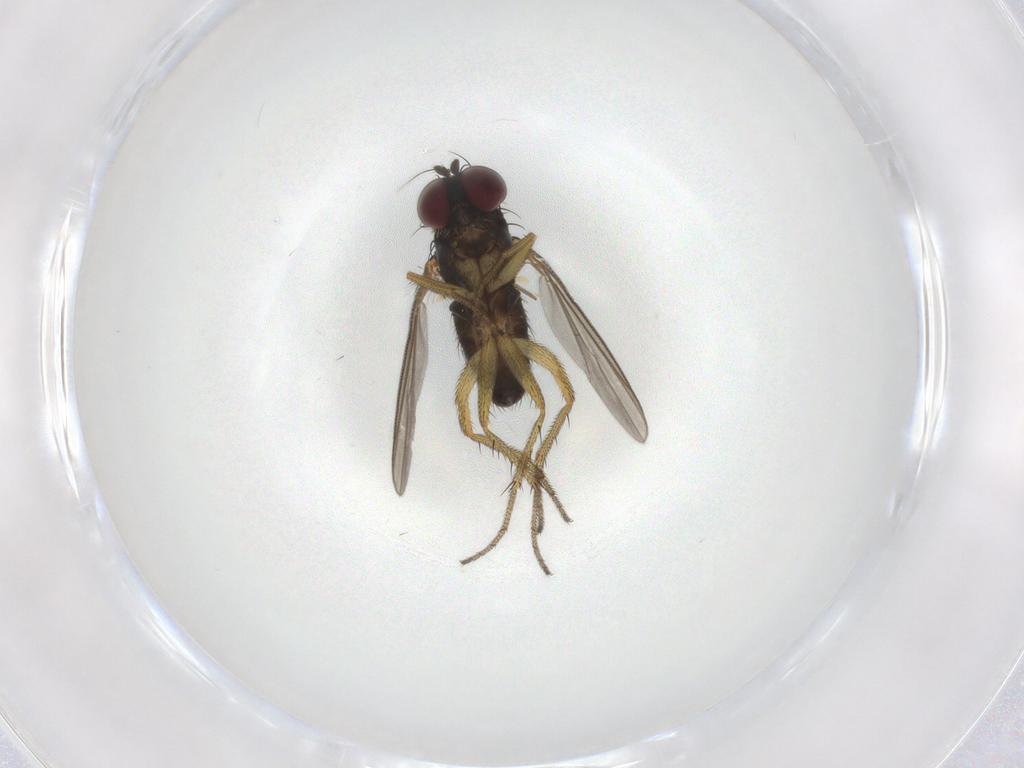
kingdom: Animalia
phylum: Arthropoda
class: Insecta
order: Diptera
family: Dolichopodidae
